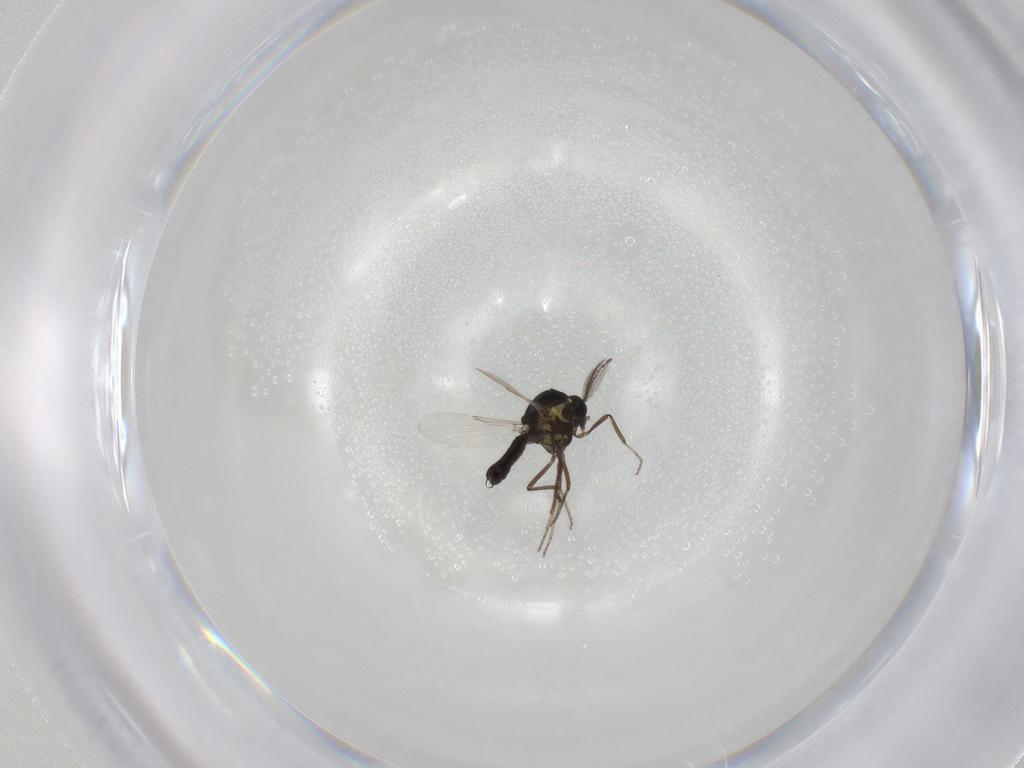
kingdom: Animalia
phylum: Arthropoda
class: Insecta
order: Diptera
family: Ceratopogonidae
